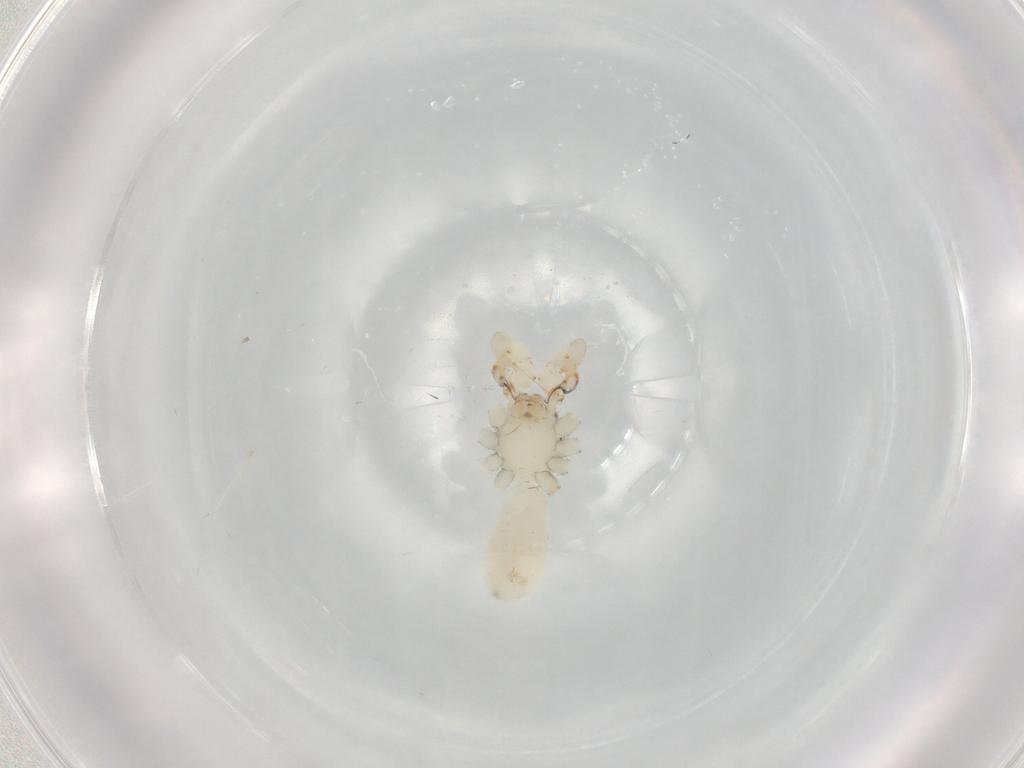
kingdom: Animalia
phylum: Arthropoda
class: Arachnida
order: Araneae
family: Pholcidae
